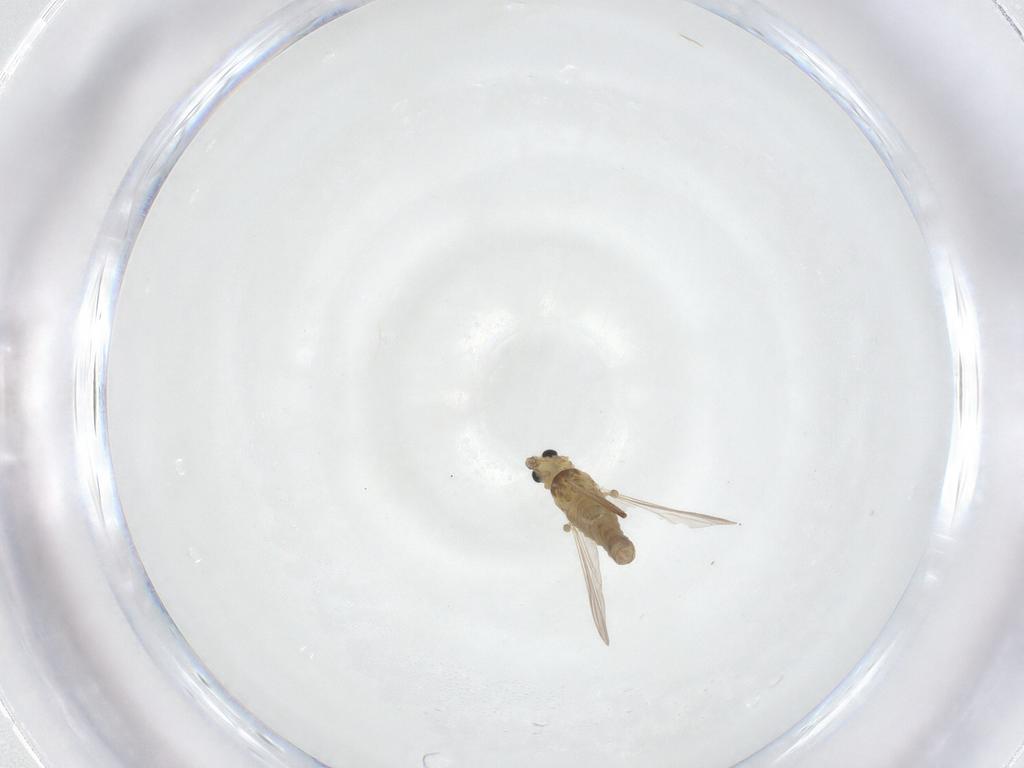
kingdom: Animalia
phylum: Arthropoda
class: Insecta
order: Diptera
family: Chironomidae
